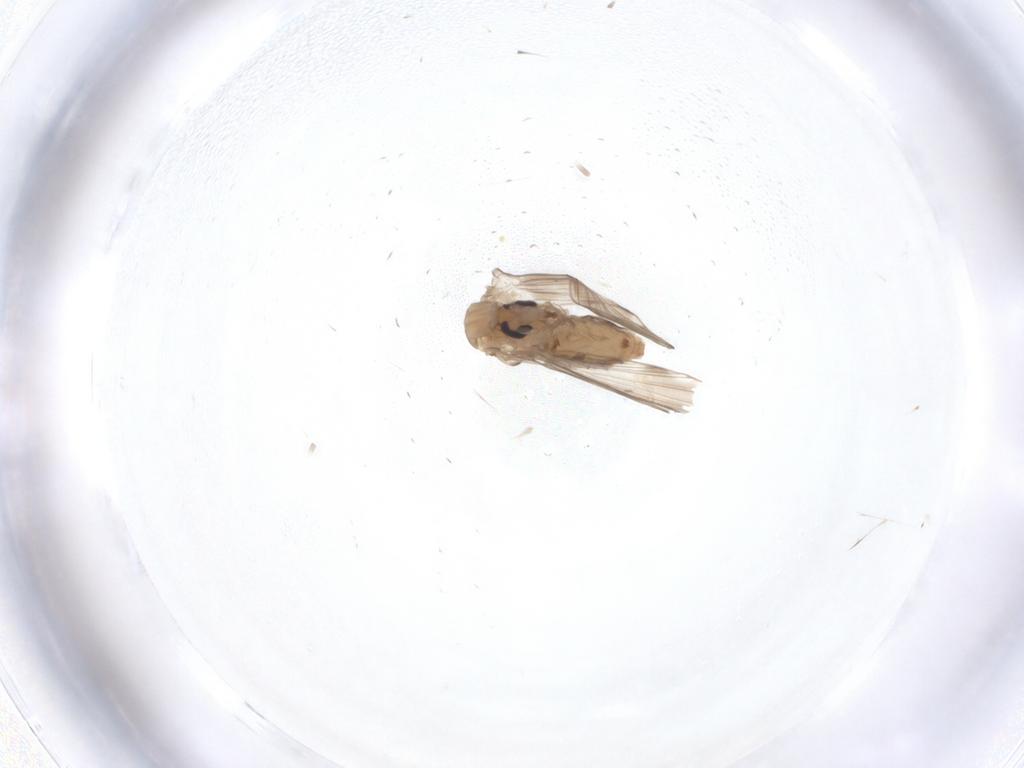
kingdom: Animalia
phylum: Arthropoda
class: Insecta
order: Diptera
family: Psychodidae
